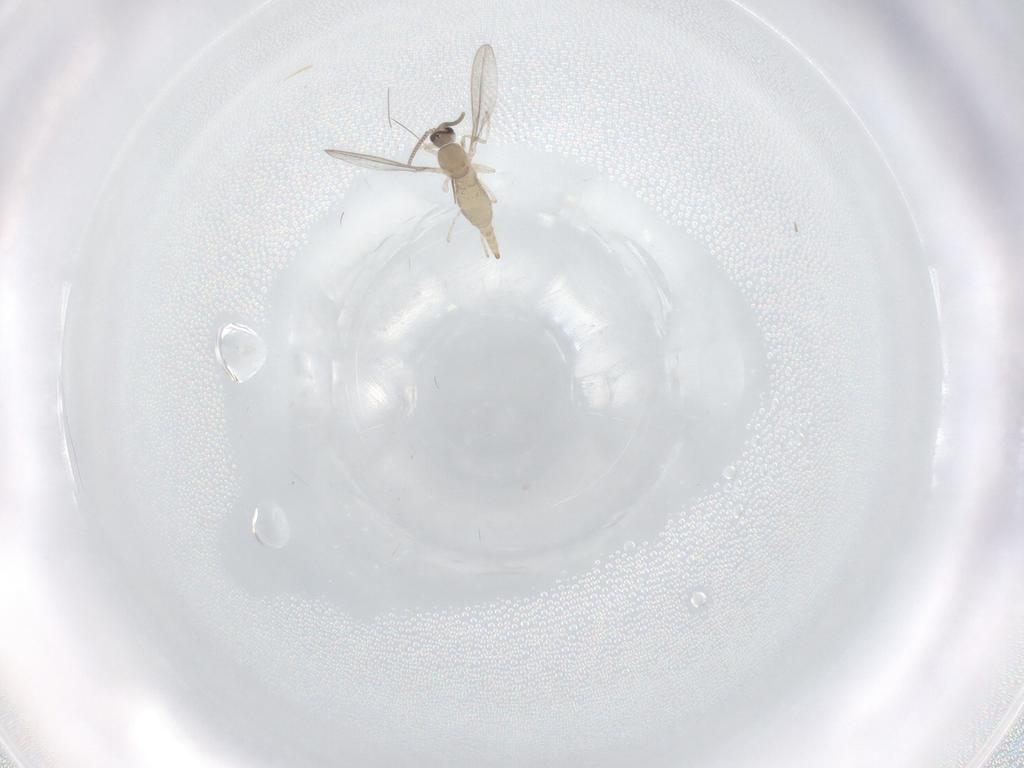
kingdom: Animalia
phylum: Arthropoda
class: Insecta
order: Diptera
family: Cecidomyiidae
